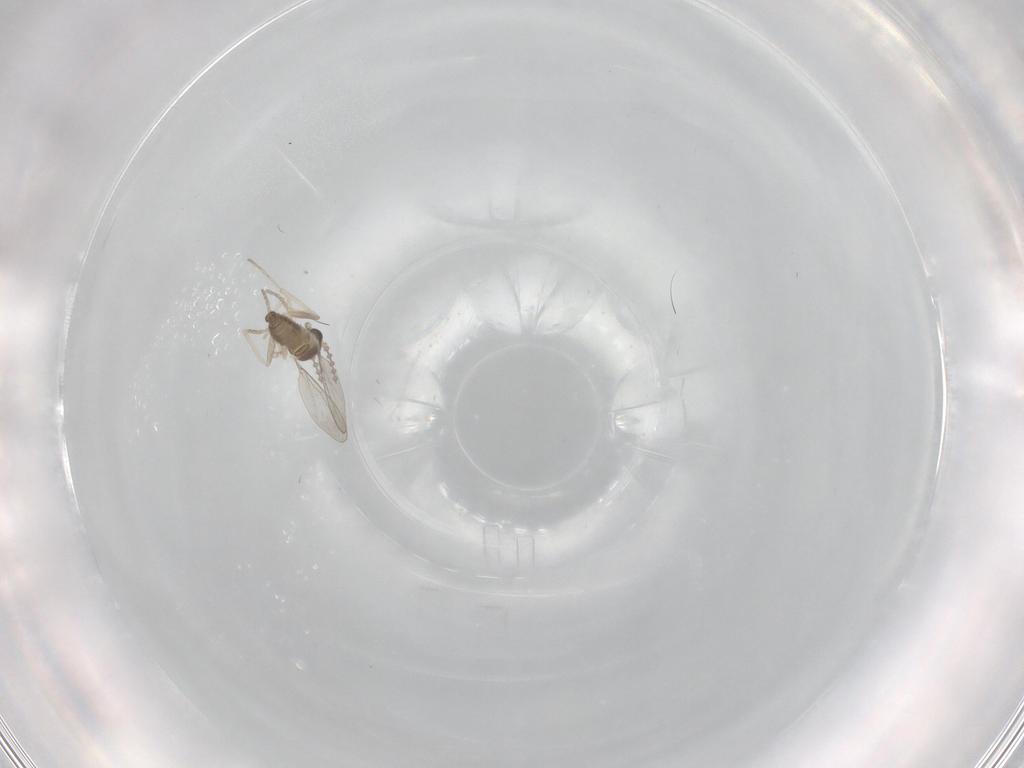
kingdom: Animalia
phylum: Arthropoda
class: Insecta
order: Diptera
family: Cecidomyiidae
